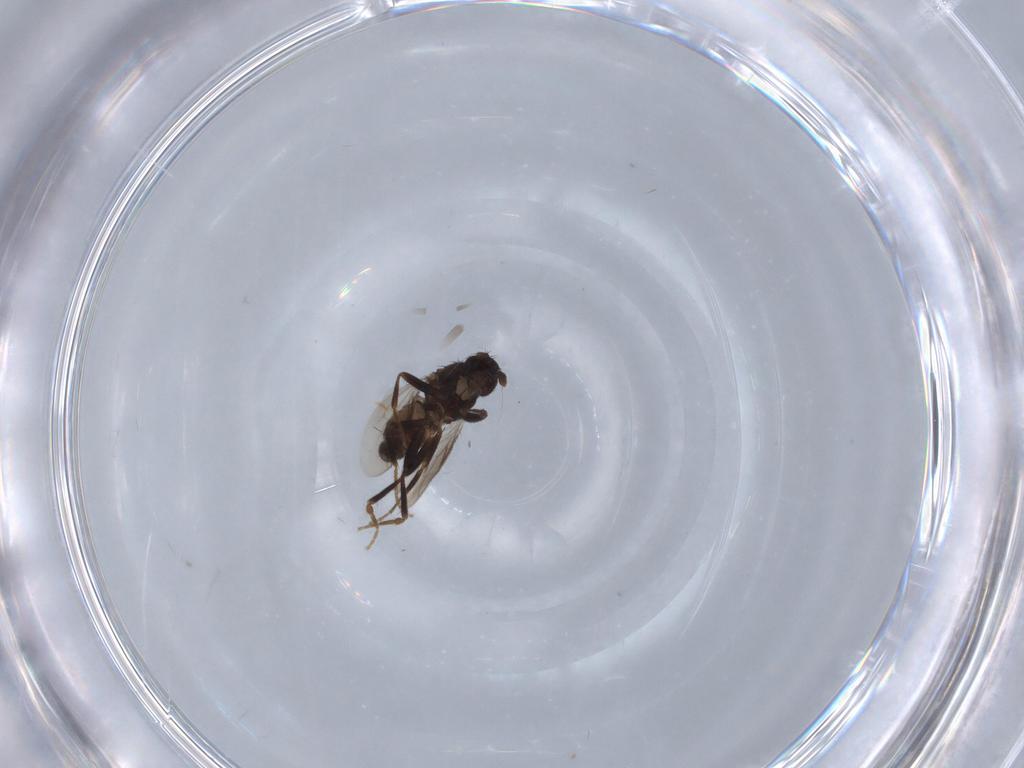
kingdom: Animalia
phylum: Arthropoda
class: Insecta
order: Diptera
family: Sphaeroceridae
